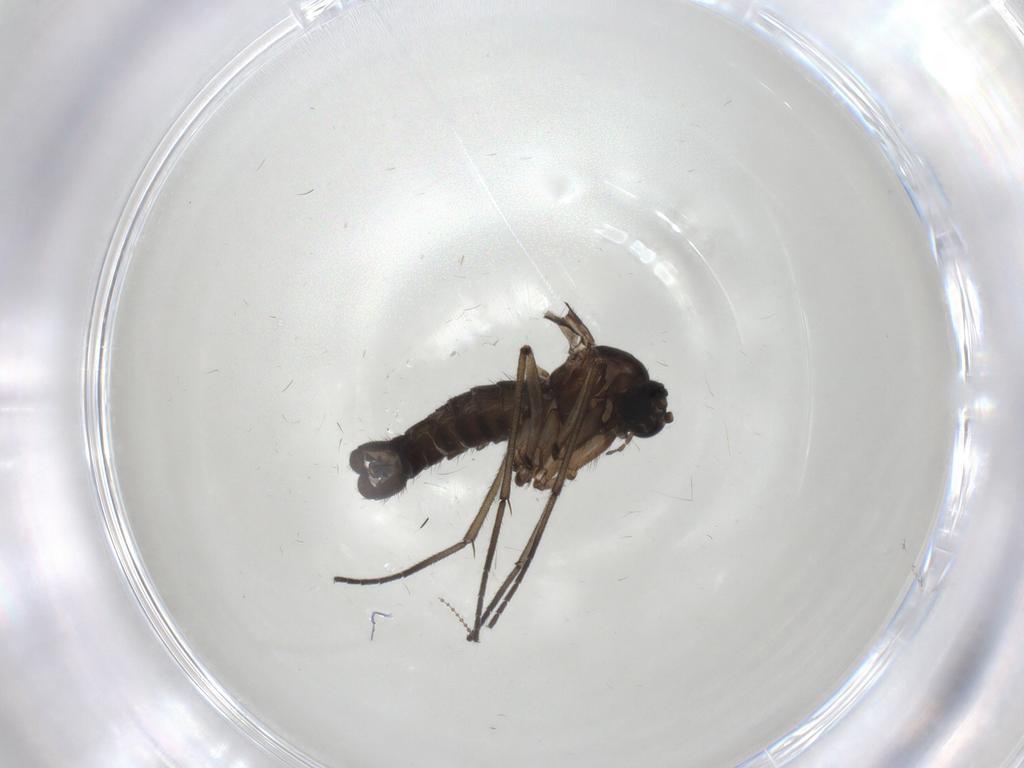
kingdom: Animalia
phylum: Arthropoda
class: Insecta
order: Diptera
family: Sciaridae
